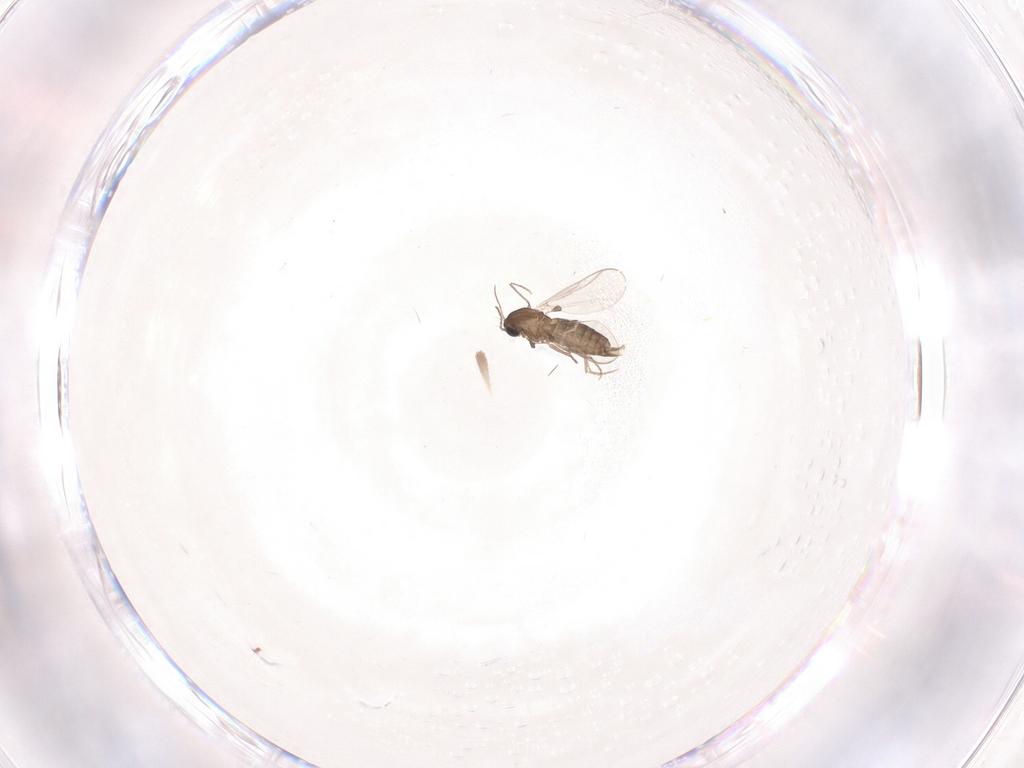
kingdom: Animalia
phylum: Arthropoda
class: Insecta
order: Diptera
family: Chironomidae
